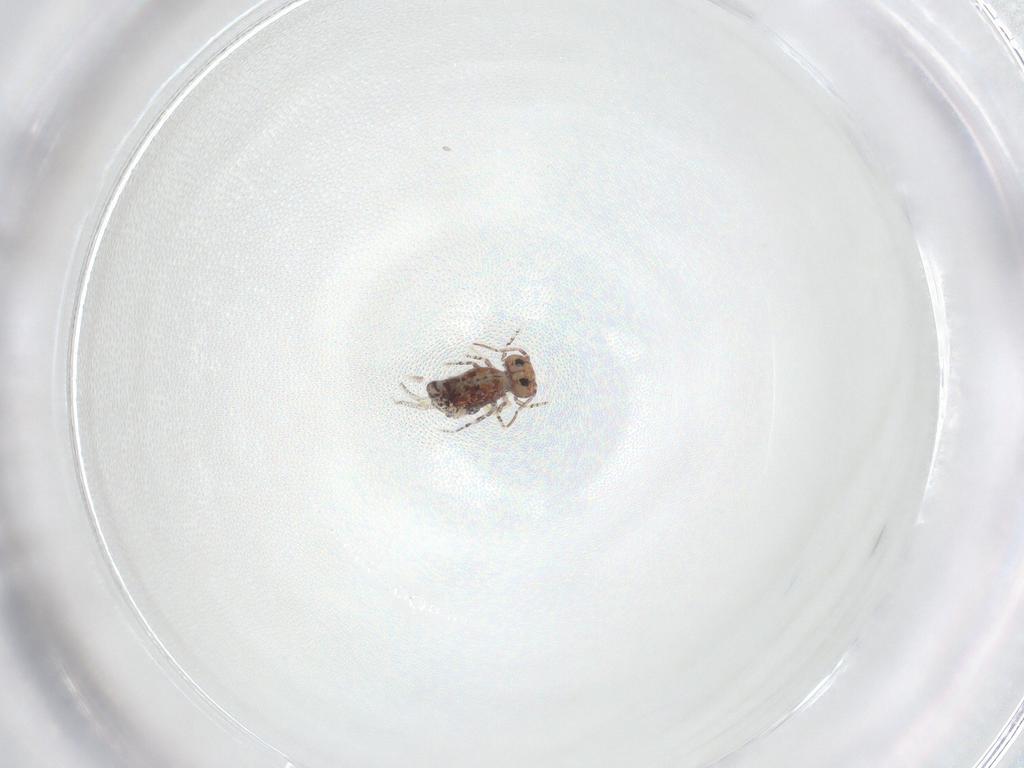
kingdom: Animalia
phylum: Arthropoda
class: Collembola
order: Symphypleona
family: Bourletiellidae
